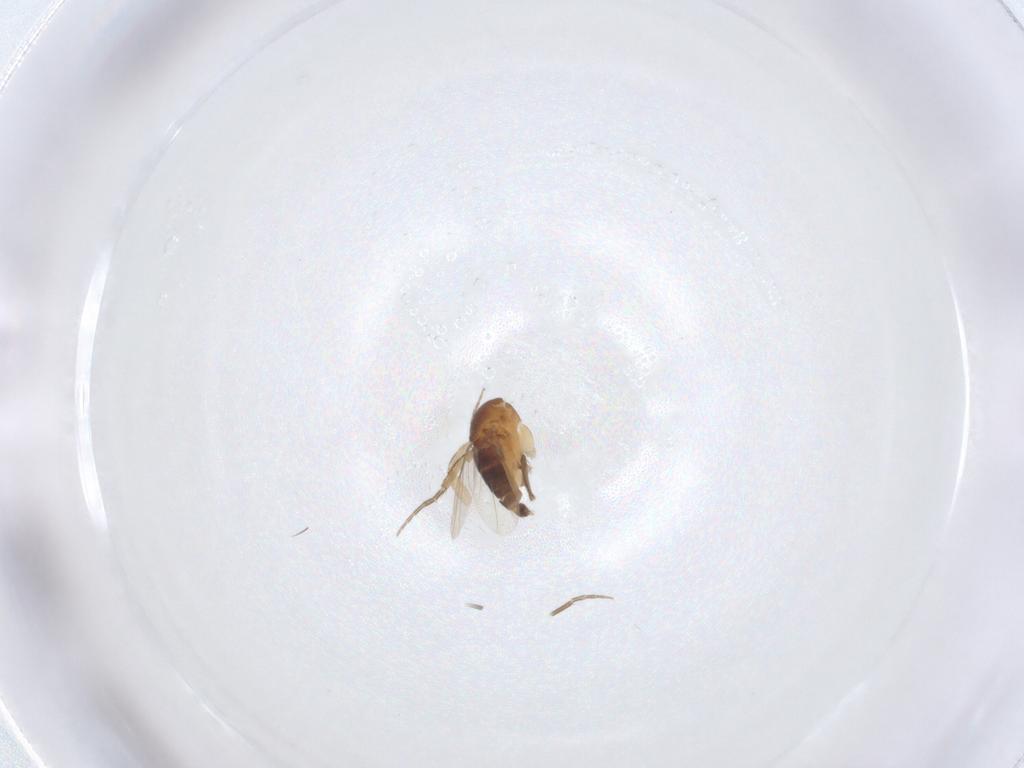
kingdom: Animalia
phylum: Arthropoda
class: Insecta
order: Diptera
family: Phoridae
